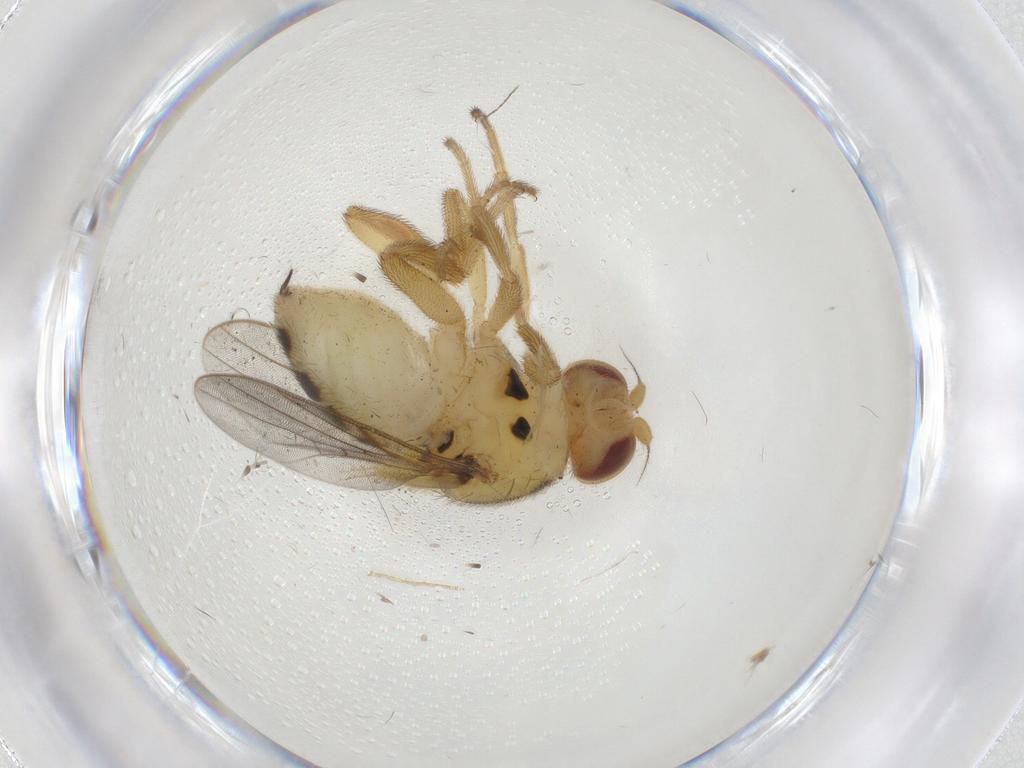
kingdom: Animalia
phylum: Arthropoda
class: Insecta
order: Diptera
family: Chloropidae
